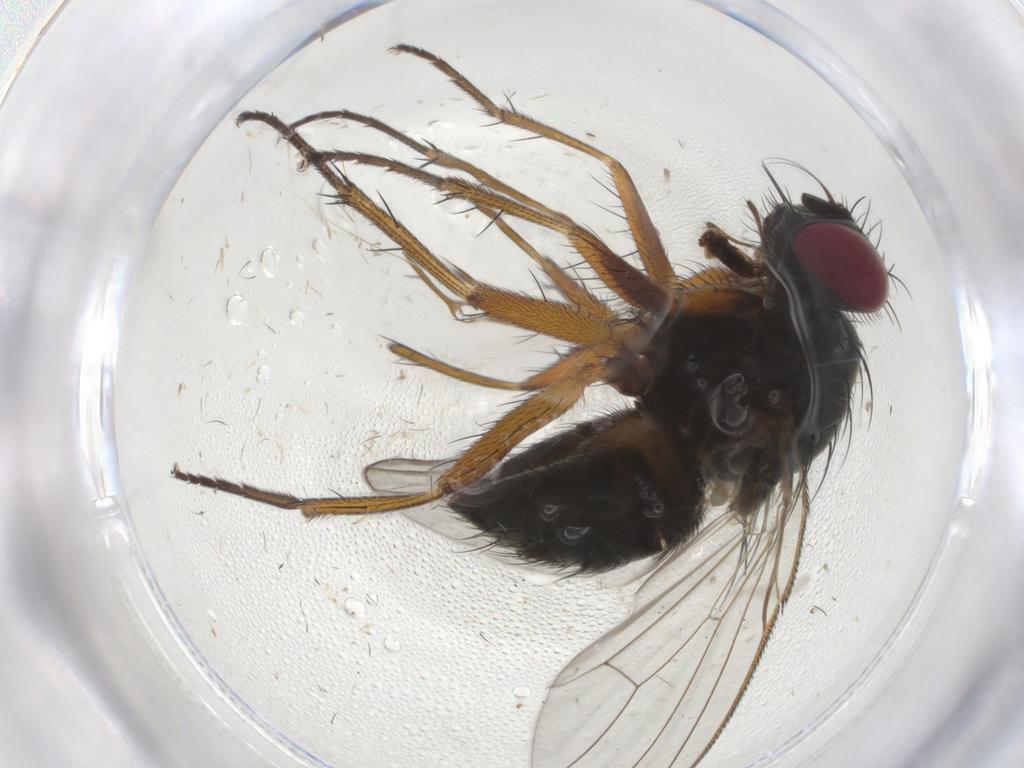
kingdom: Animalia
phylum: Arthropoda
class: Insecta
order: Diptera
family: Muscidae
